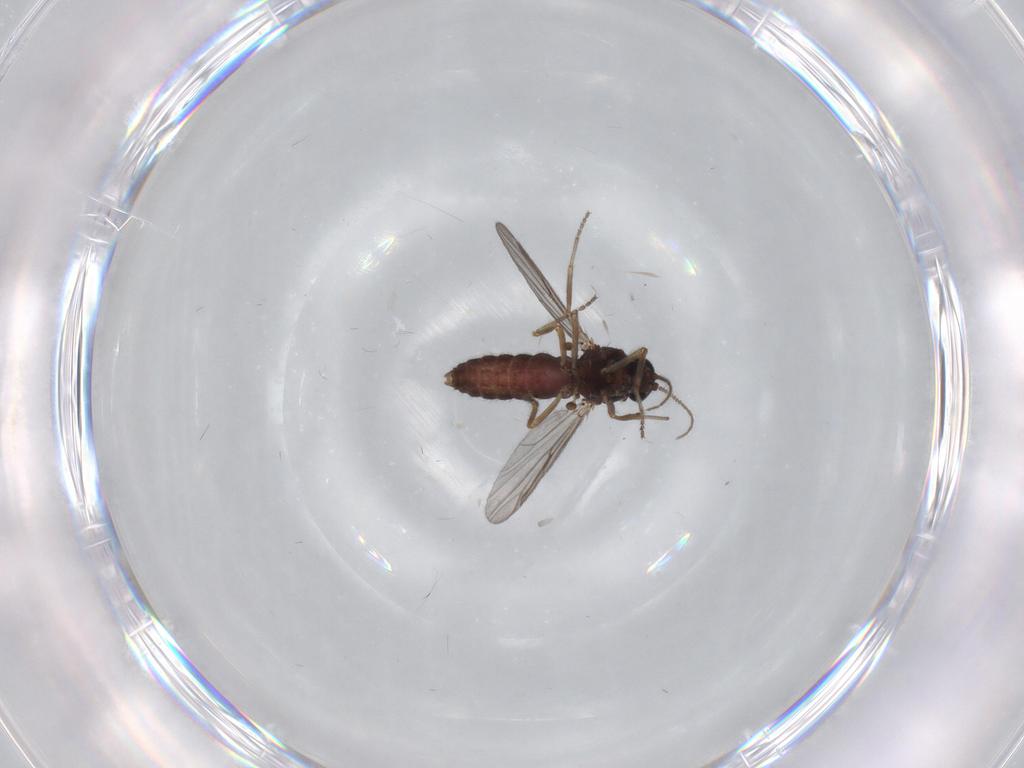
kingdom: Animalia
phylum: Arthropoda
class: Insecta
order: Diptera
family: Ceratopogonidae
